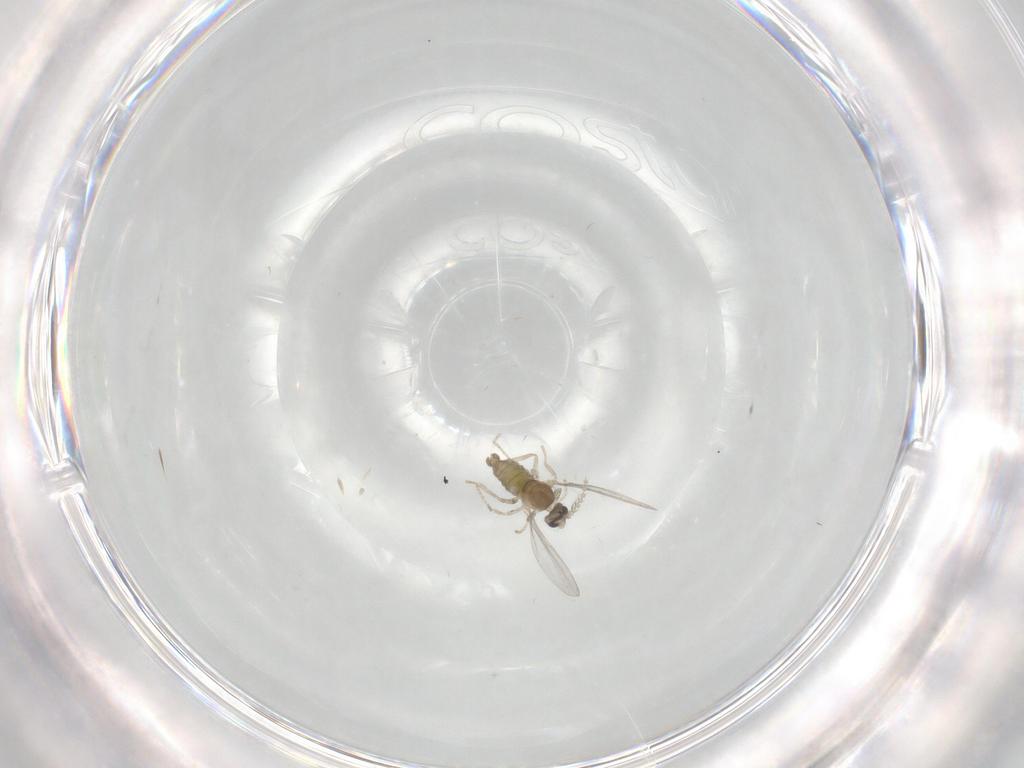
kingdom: Animalia
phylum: Arthropoda
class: Insecta
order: Diptera
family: Cecidomyiidae
